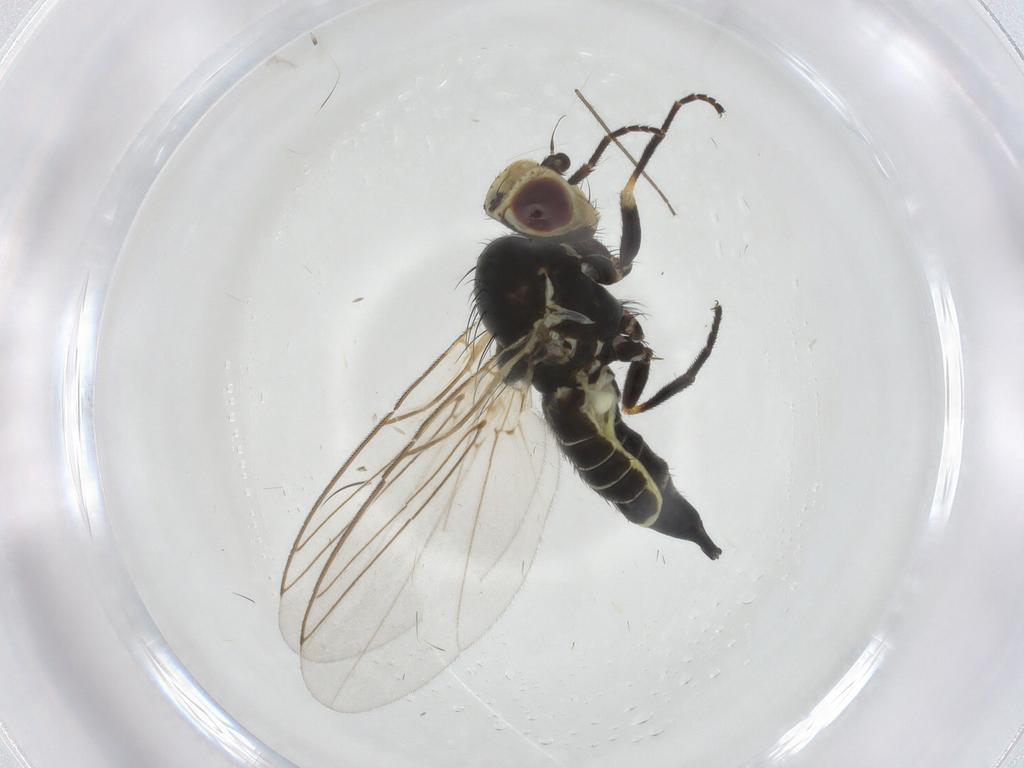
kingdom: Animalia
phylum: Arthropoda
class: Insecta
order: Diptera
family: Agromyzidae
